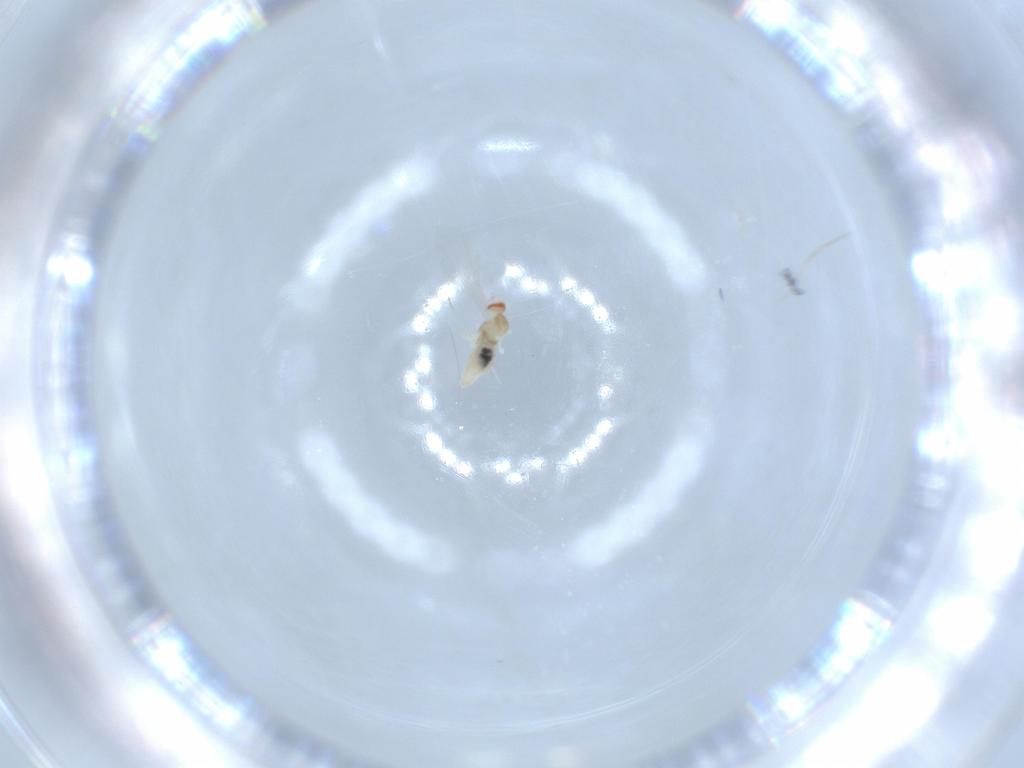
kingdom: Animalia
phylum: Arthropoda
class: Insecta
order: Diptera
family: Cecidomyiidae
